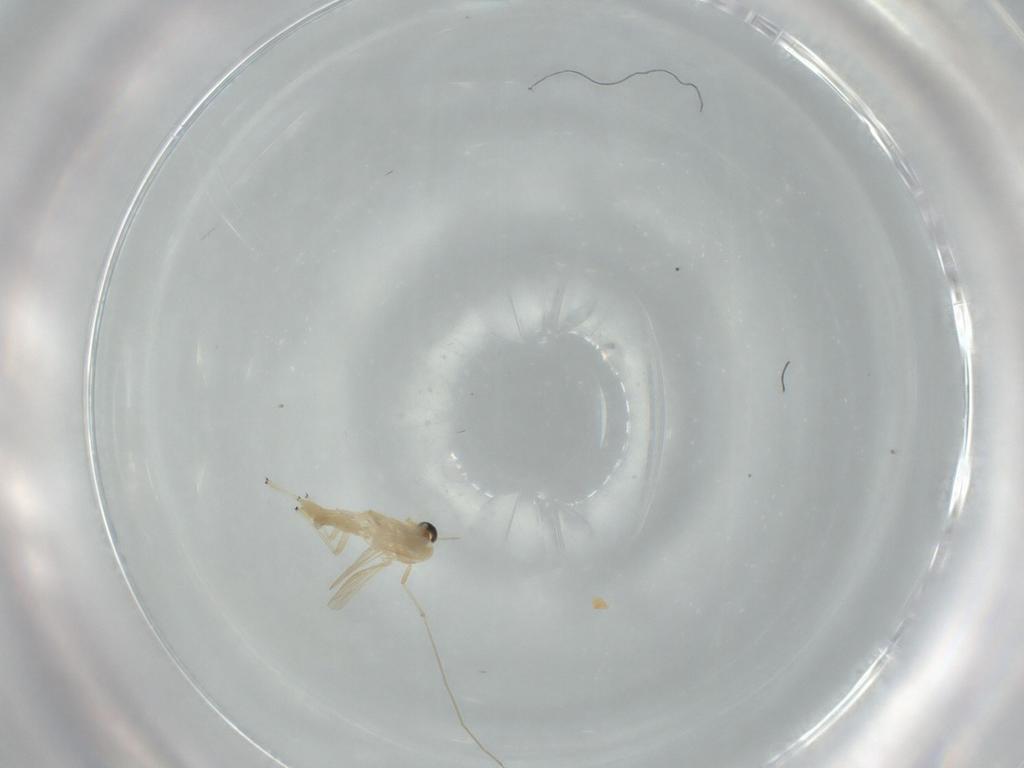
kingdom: Animalia
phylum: Arthropoda
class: Insecta
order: Diptera
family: Chironomidae
